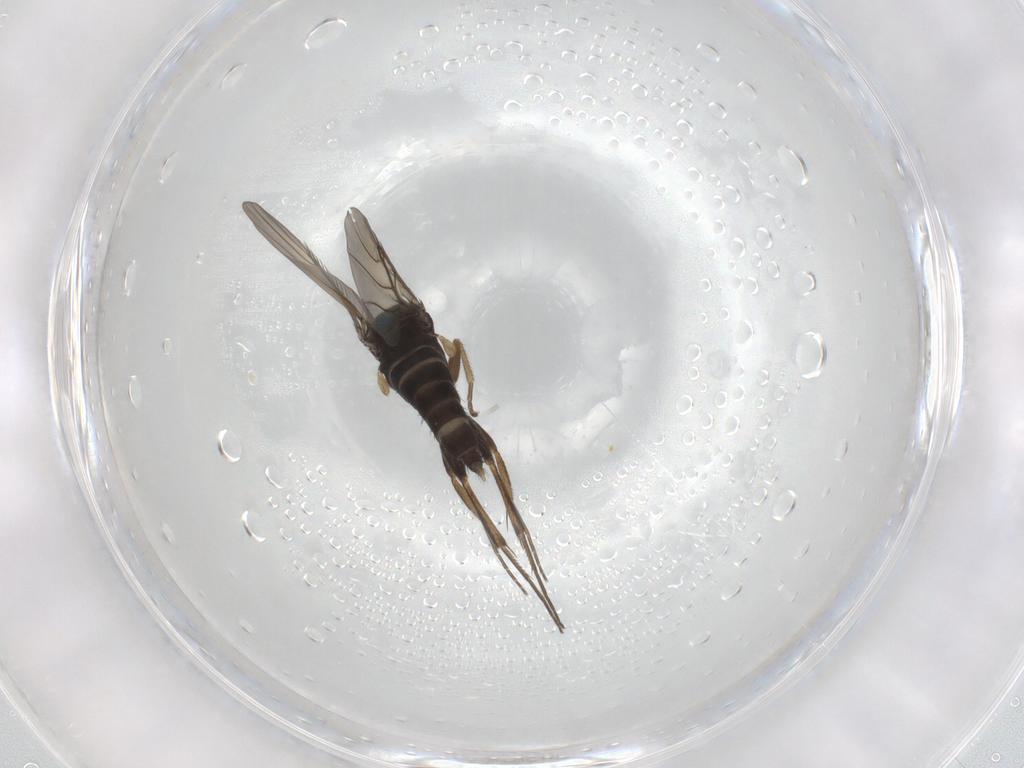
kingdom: Animalia
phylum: Arthropoda
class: Insecta
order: Diptera
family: Phoridae
